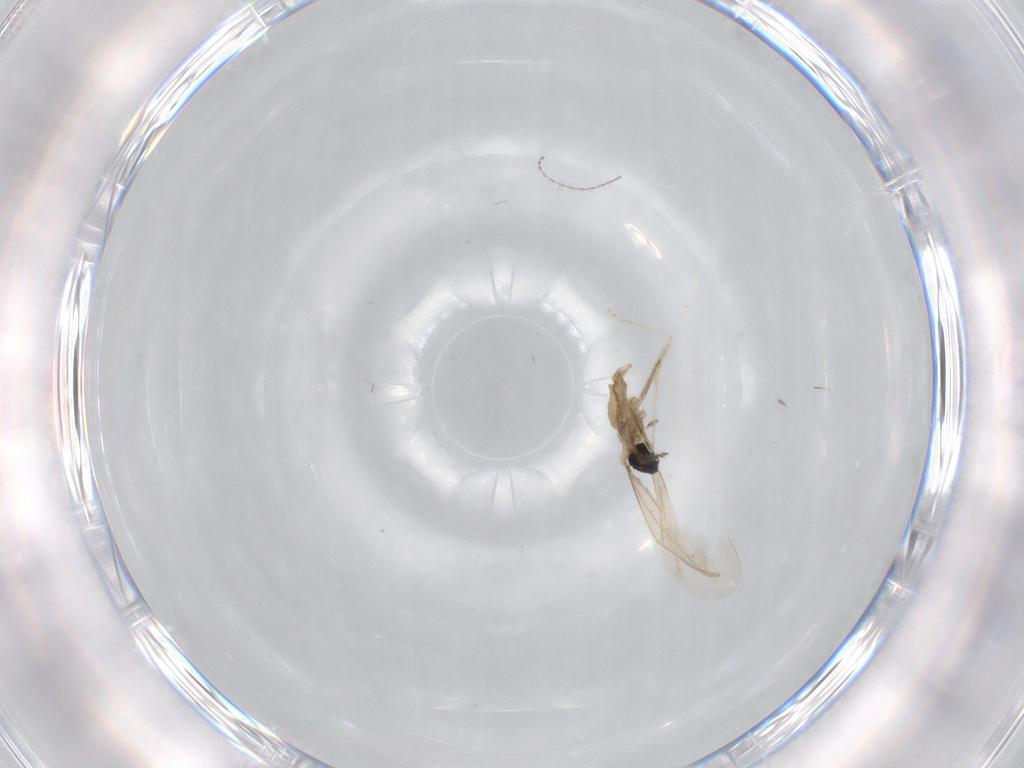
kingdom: Animalia
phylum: Arthropoda
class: Insecta
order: Diptera
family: Cecidomyiidae
